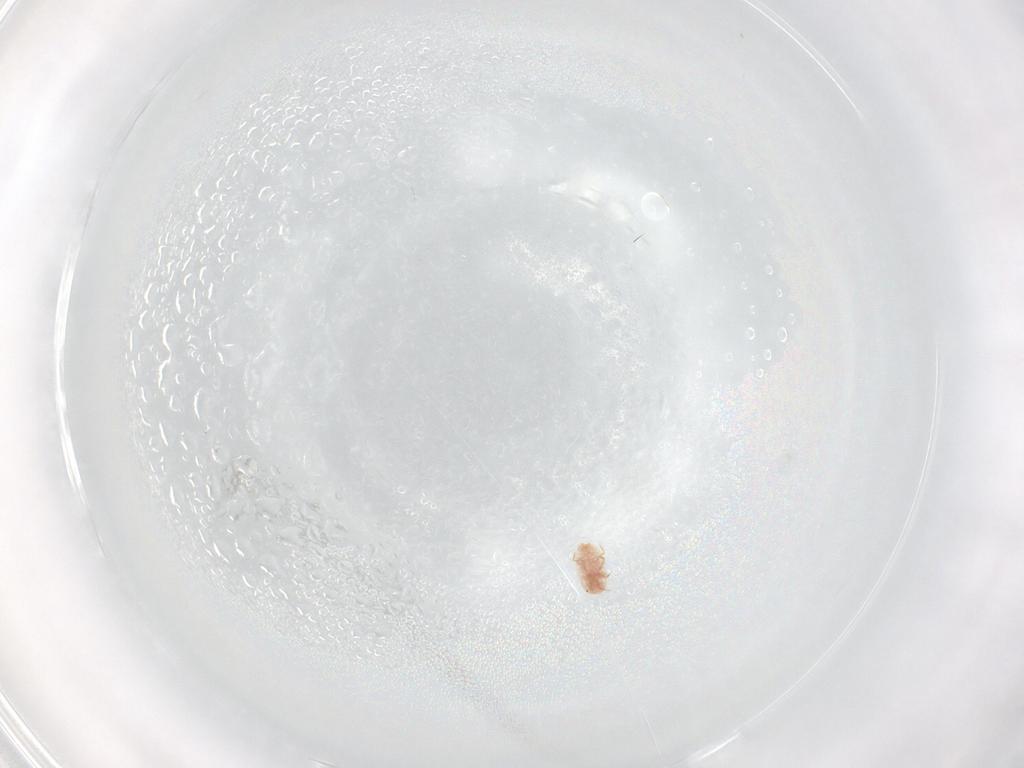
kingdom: Animalia
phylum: Arthropoda
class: Insecta
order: Hemiptera
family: Coccidae
